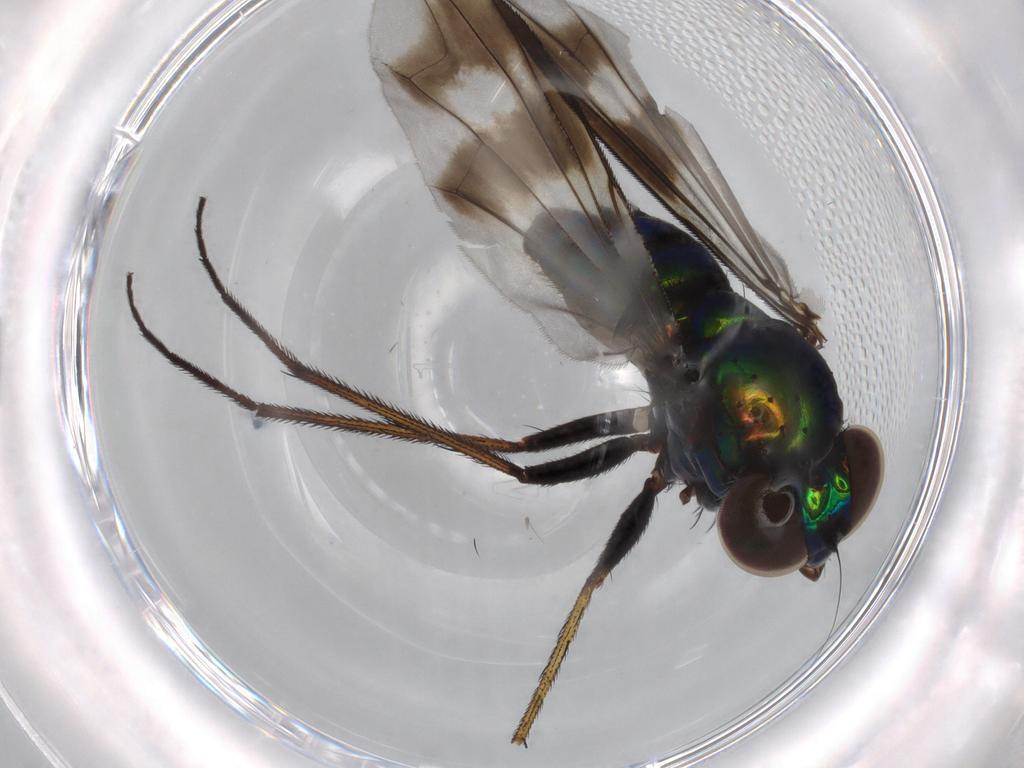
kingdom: Animalia
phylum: Arthropoda
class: Insecta
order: Diptera
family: Dolichopodidae
